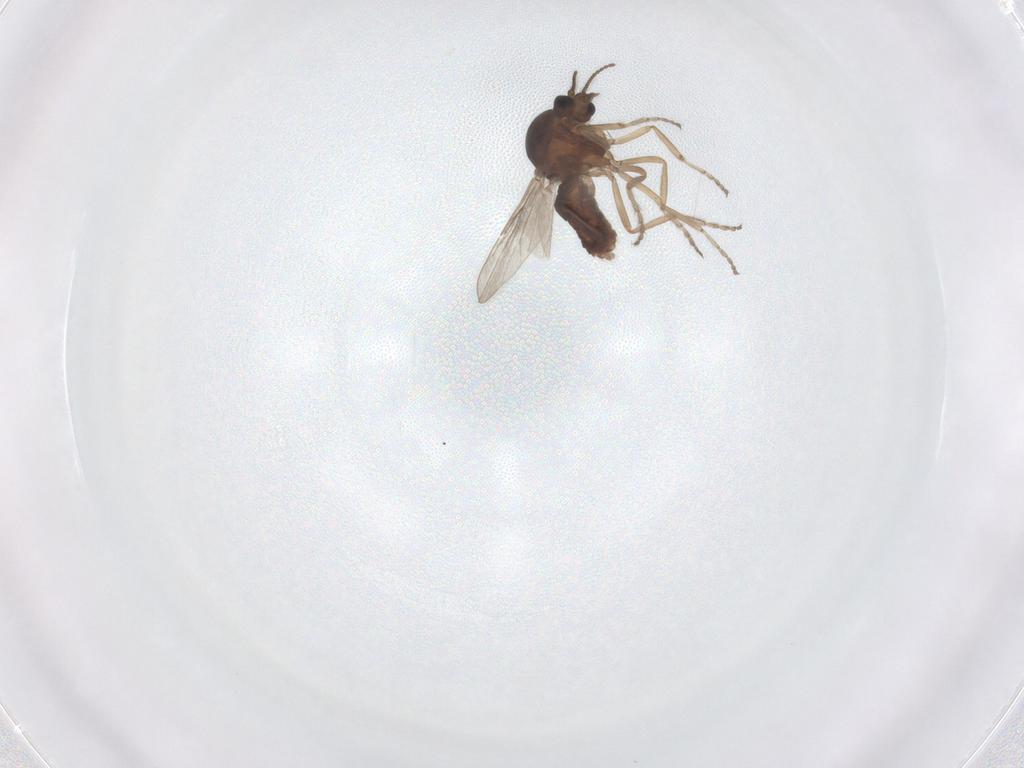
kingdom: Animalia
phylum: Arthropoda
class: Insecta
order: Diptera
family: Ceratopogonidae
